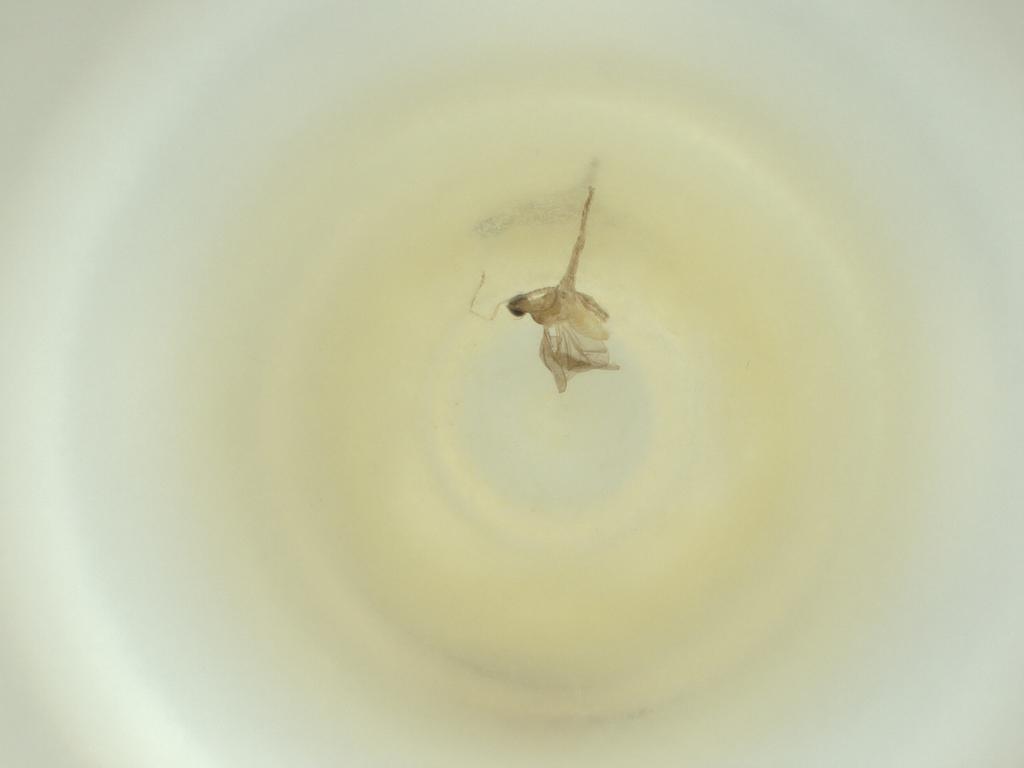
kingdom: Animalia
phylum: Arthropoda
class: Insecta
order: Diptera
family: Cecidomyiidae
